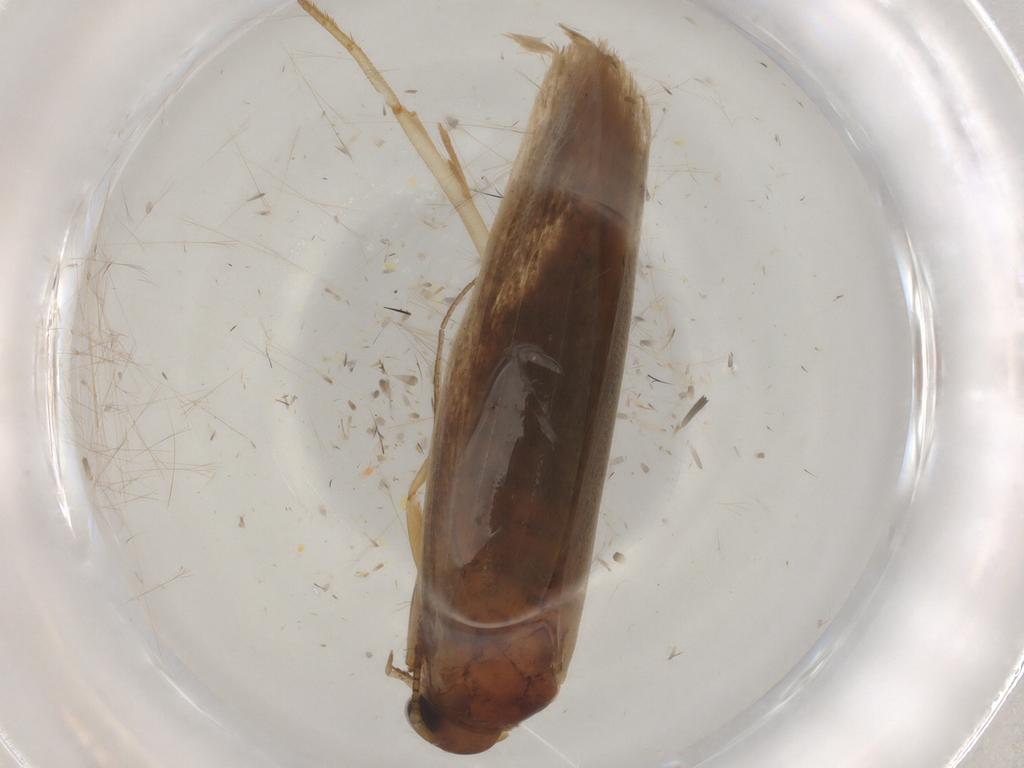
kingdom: Animalia
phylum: Arthropoda
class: Insecta
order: Lepidoptera
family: Scythrididae
